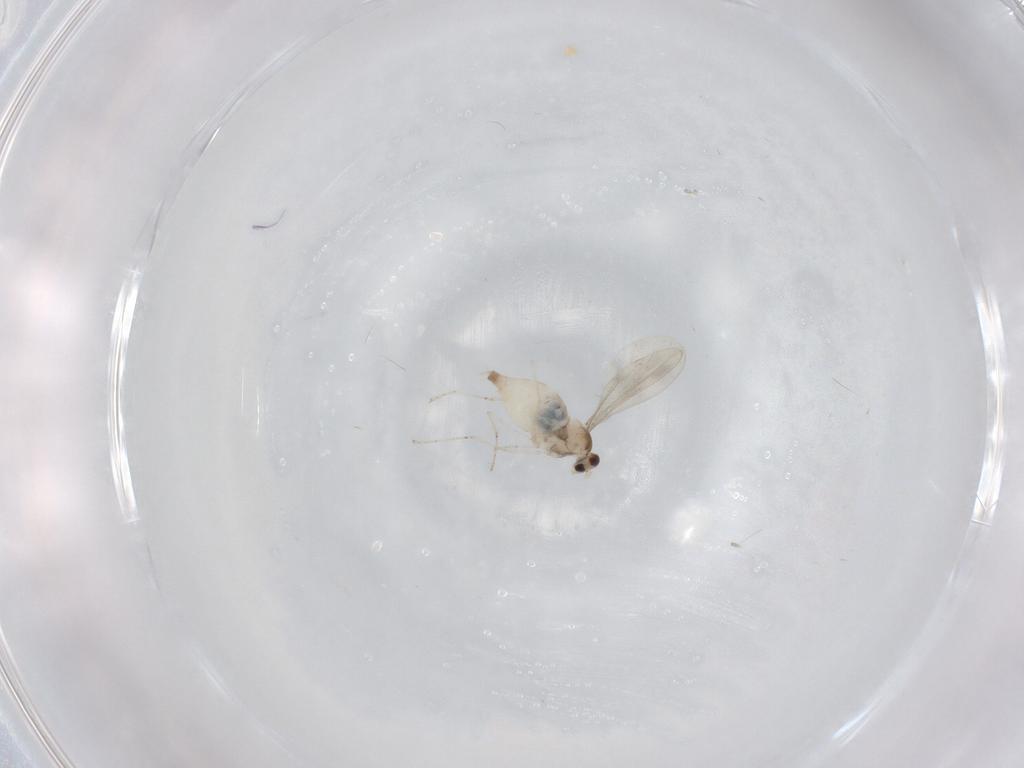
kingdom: Animalia
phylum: Arthropoda
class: Insecta
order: Diptera
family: Cecidomyiidae
